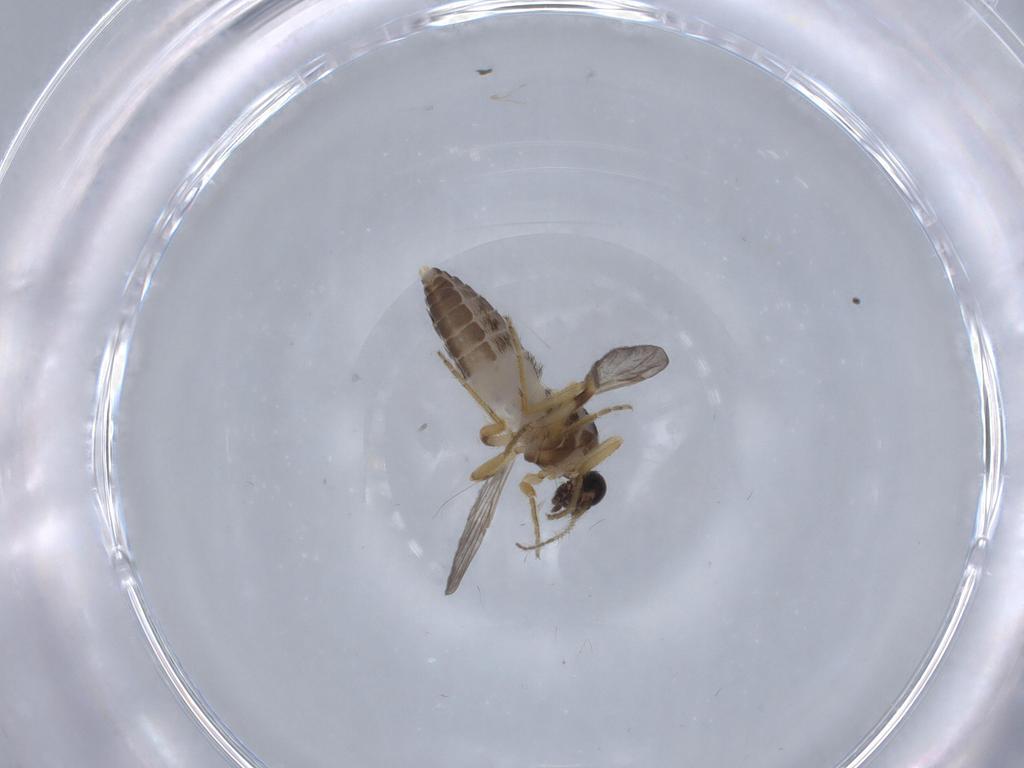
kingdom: Animalia
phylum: Arthropoda
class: Insecta
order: Diptera
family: Ceratopogonidae
